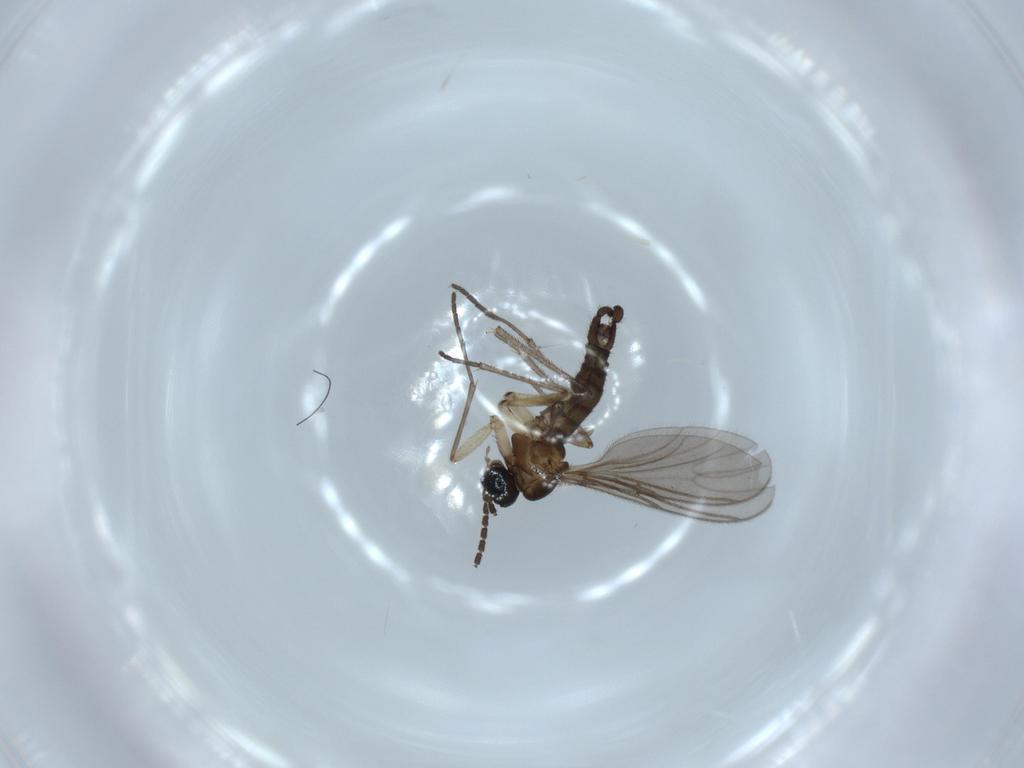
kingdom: Animalia
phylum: Arthropoda
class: Insecta
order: Diptera
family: Sciaridae
